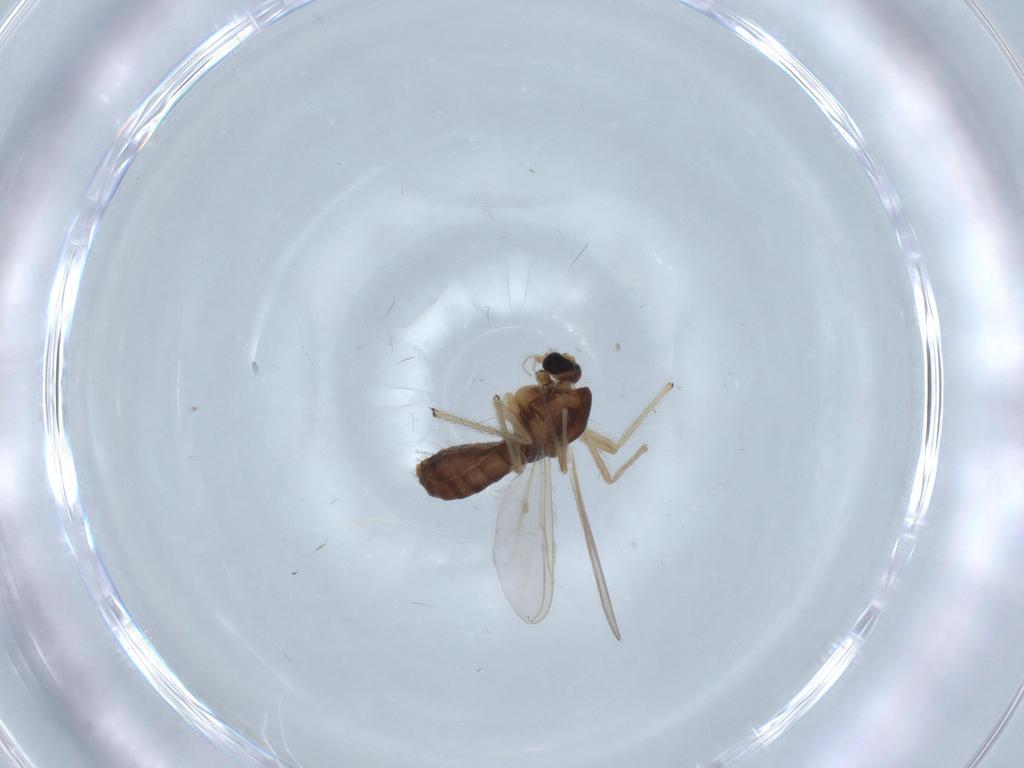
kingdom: Animalia
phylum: Arthropoda
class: Insecta
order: Diptera
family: Chironomidae
